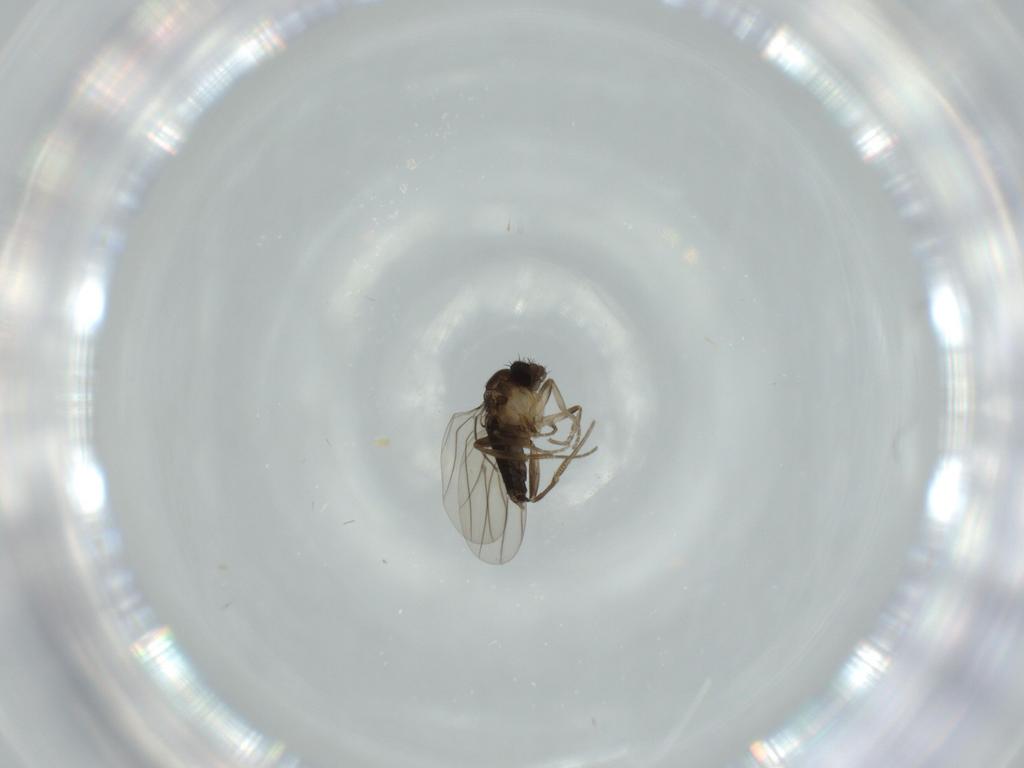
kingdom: Animalia
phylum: Arthropoda
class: Insecta
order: Diptera
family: Phoridae
